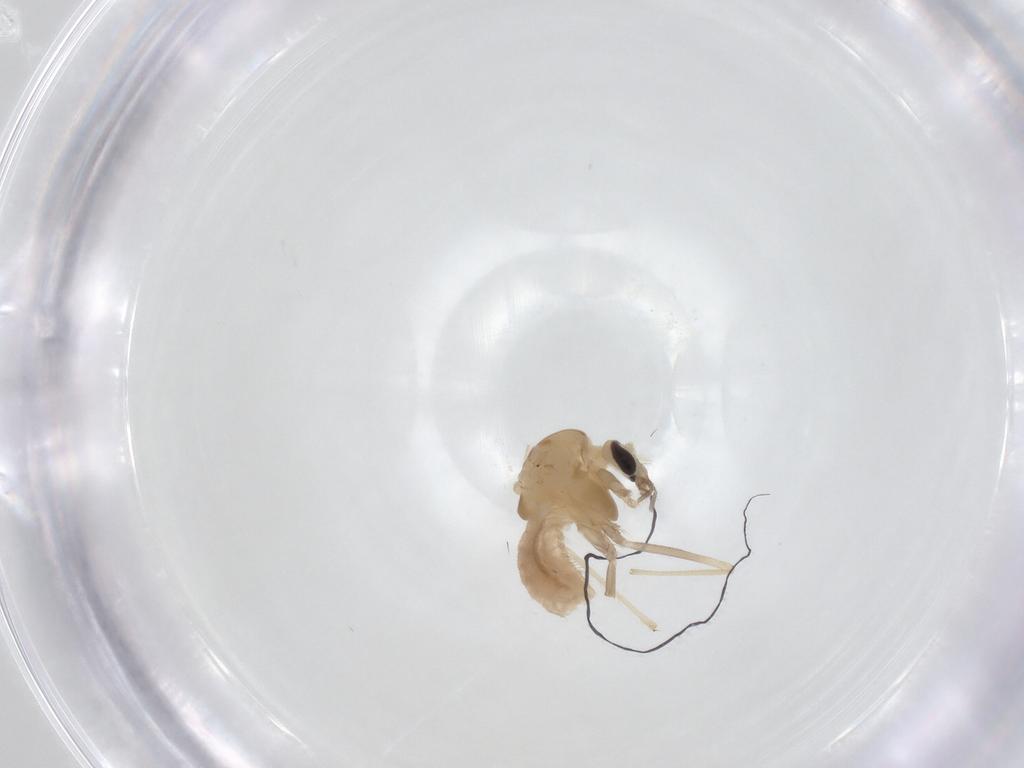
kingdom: Animalia
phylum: Arthropoda
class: Insecta
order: Diptera
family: Chironomidae
